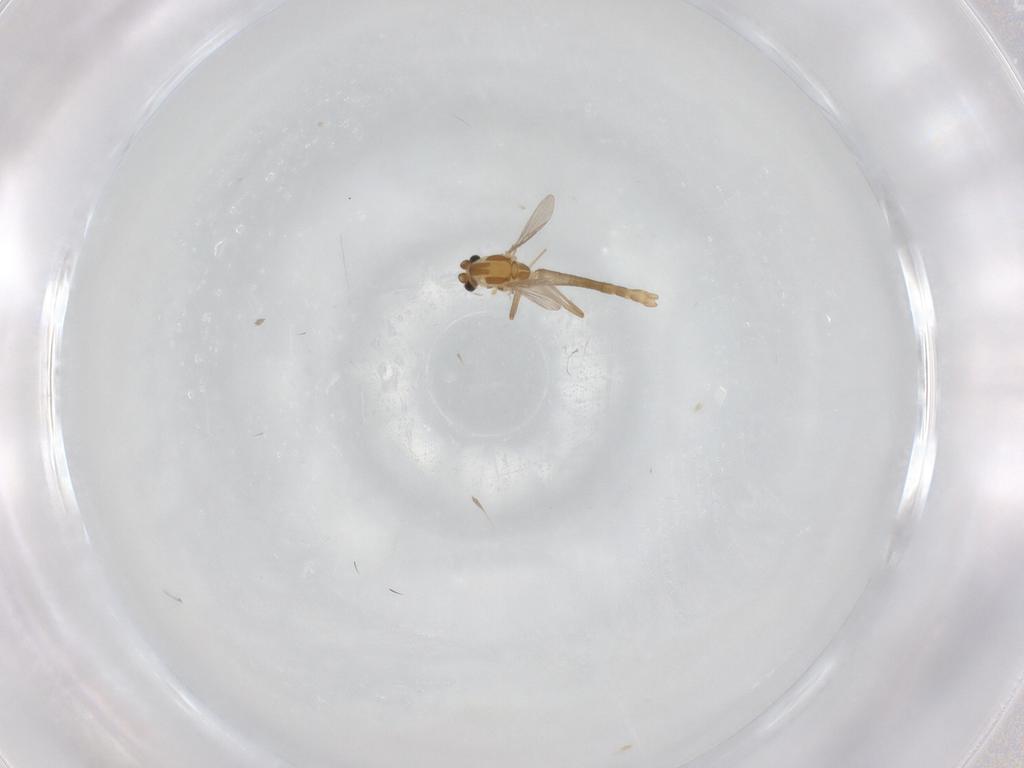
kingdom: Animalia
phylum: Arthropoda
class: Insecta
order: Diptera
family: Chironomidae
